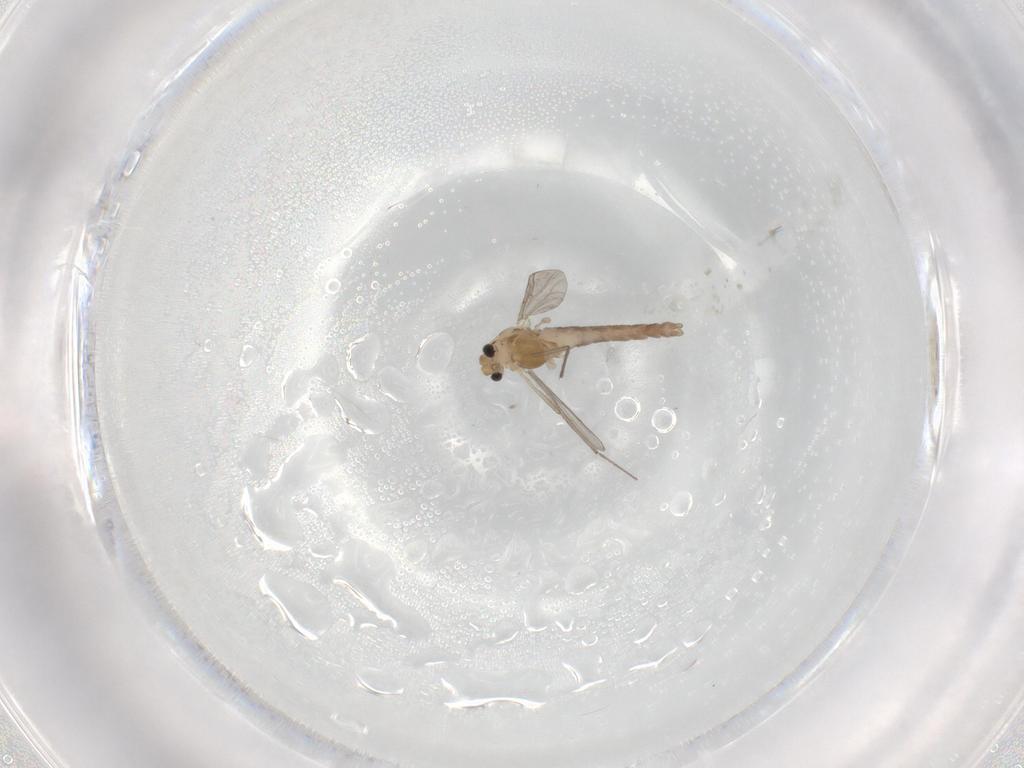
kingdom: Animalia
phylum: Arthropoda
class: Insecta
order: Diptera
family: Chironomidae
